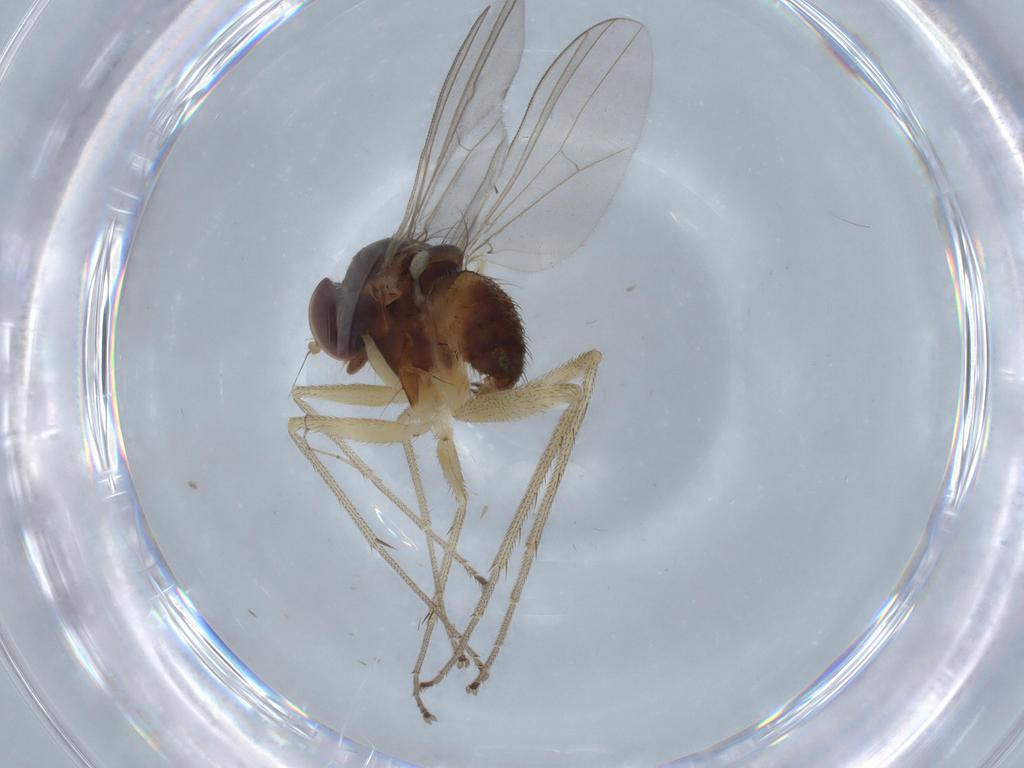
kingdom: Animalia
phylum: Arthropoda
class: Insecta
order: Diptera
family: Dolichopodidae
